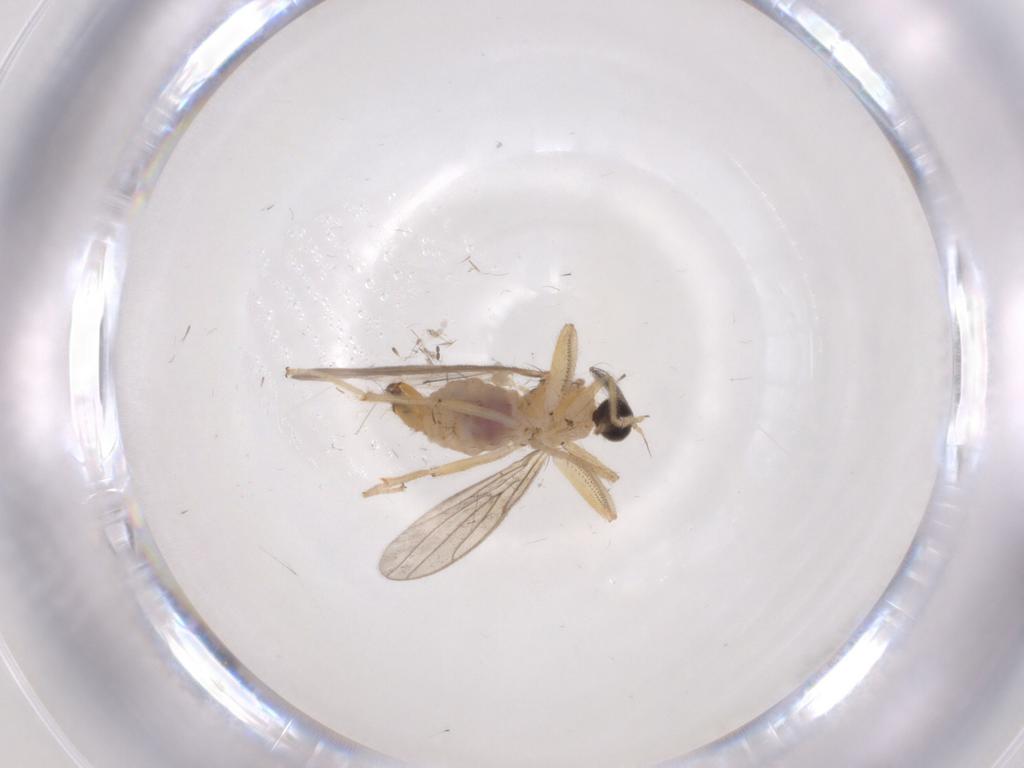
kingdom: Animalia
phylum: Arthropoda
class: Insecta
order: Diptera
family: Hybotidae
